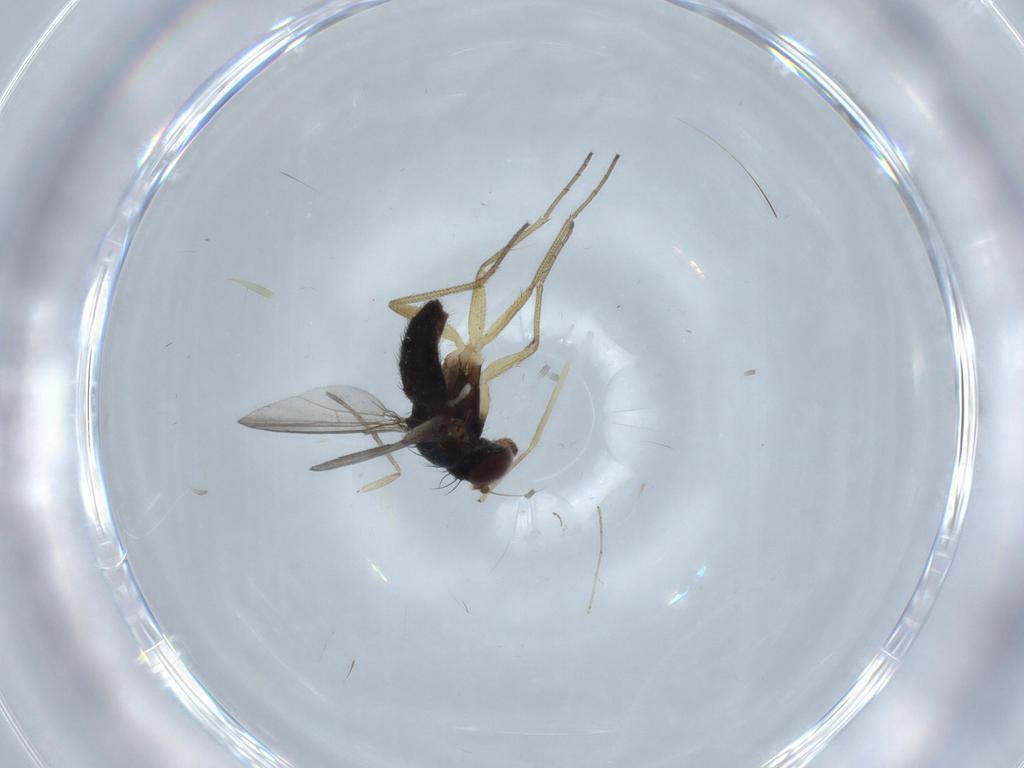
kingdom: Animalia
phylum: Arthropoda
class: Insecta
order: Diptera
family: Dolichopodidae
